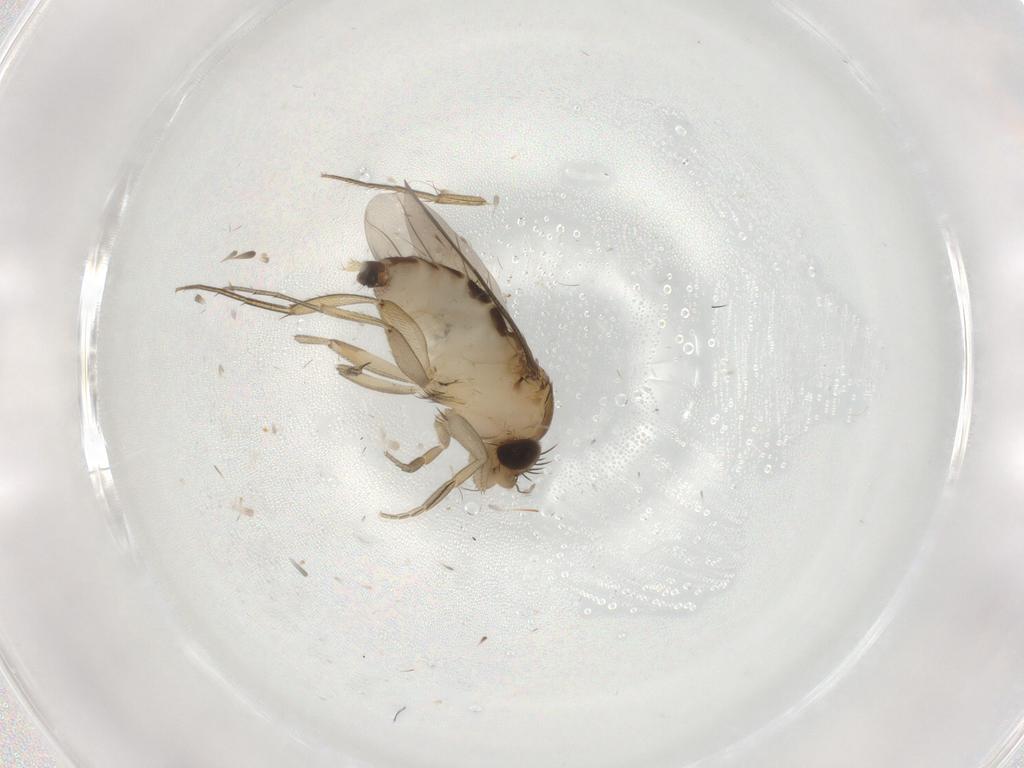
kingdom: Animalia
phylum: Arthropoda
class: Insecta
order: Diptera
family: Phoridae
